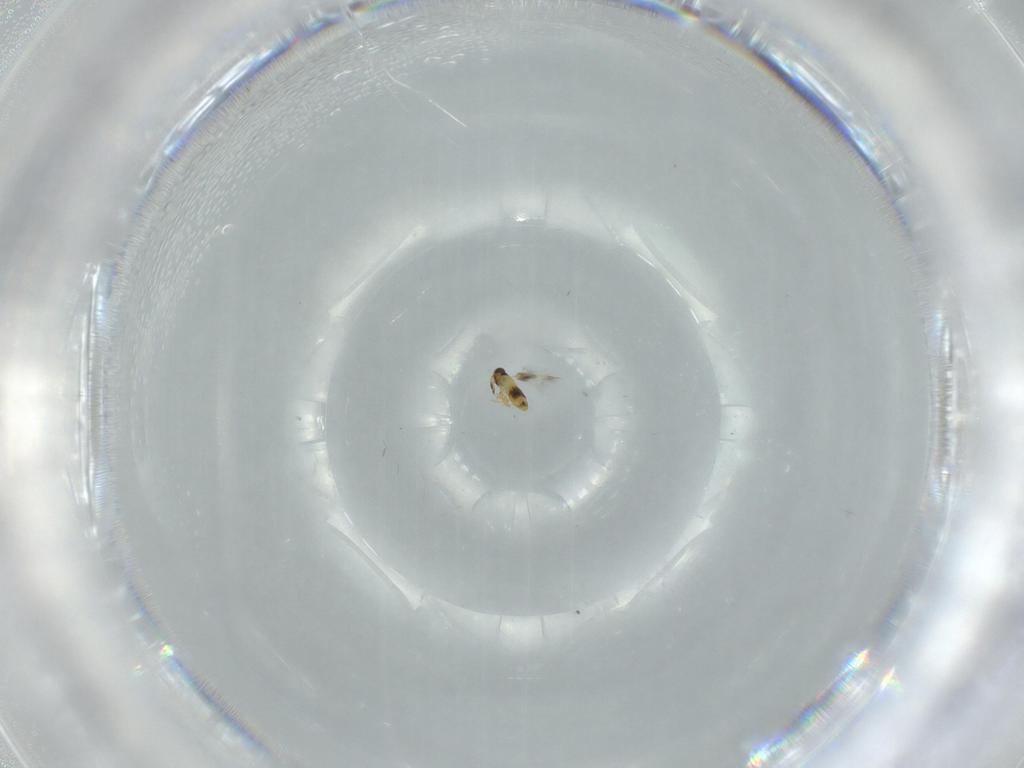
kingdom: Animalia
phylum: Arthropoda
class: Insecta
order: Hymenoptera
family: Signiphoridae
